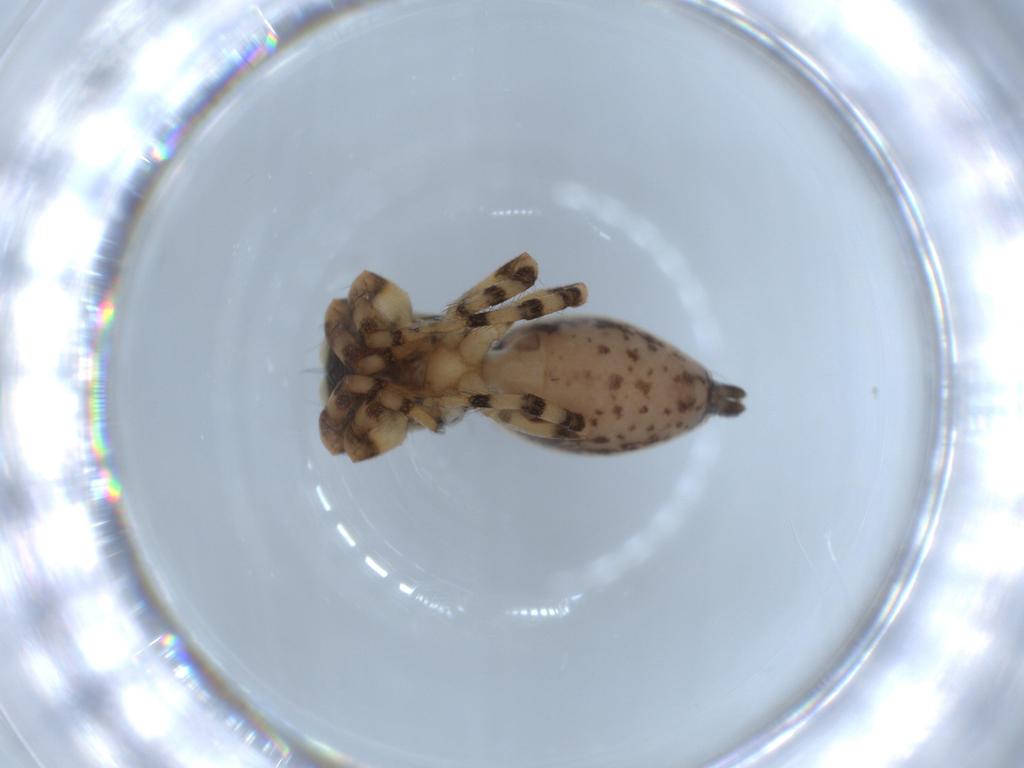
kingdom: Animalia
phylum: Arthropoda
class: Arachnida
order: Araneae
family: Salticidae
